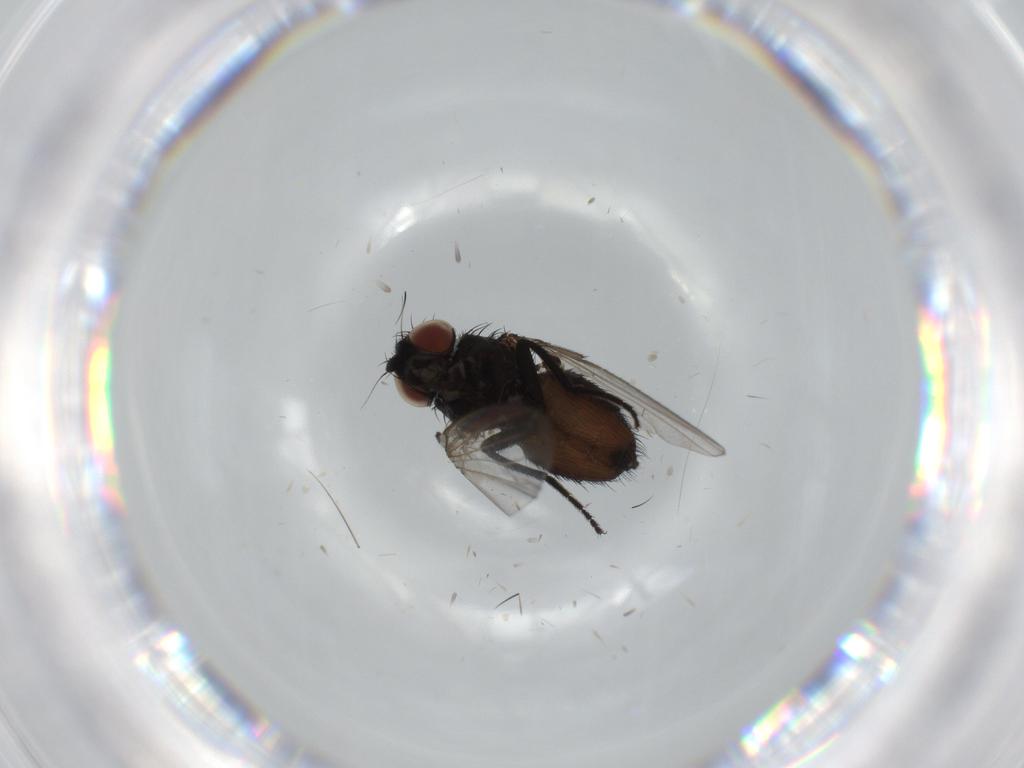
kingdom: Animalia
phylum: Arthropoda
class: Insecta
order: Diptera
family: Milichiidae
